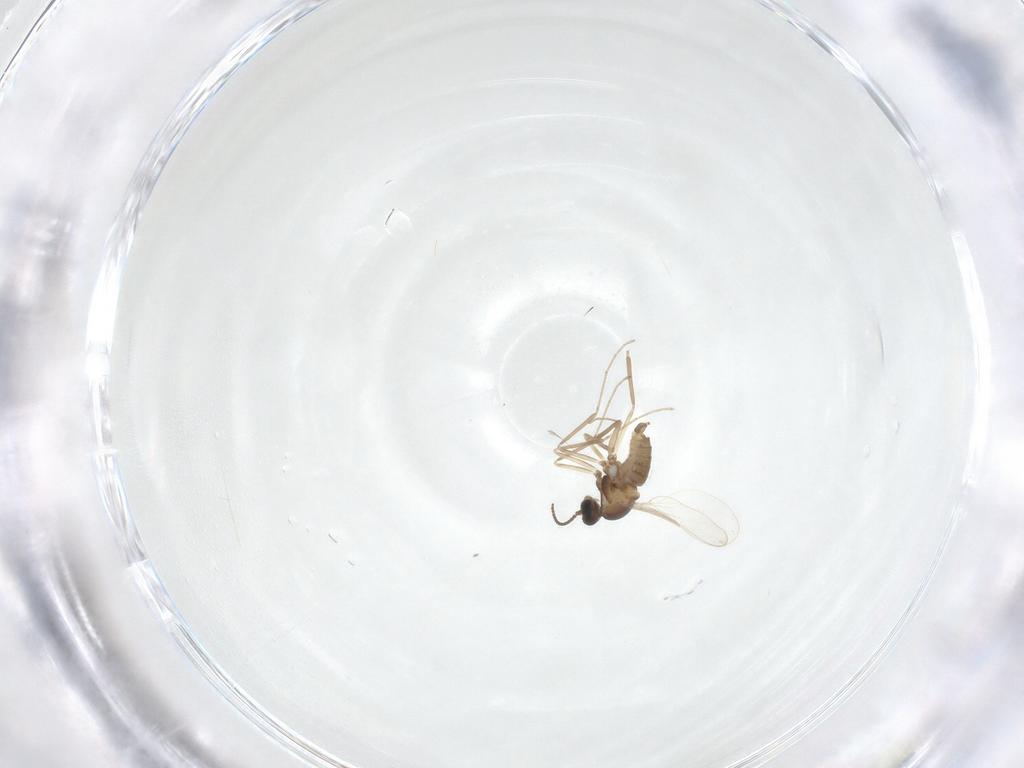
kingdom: Animalia
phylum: Arthropoda
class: Insecta
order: Diptera
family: Cecidomyiidae
